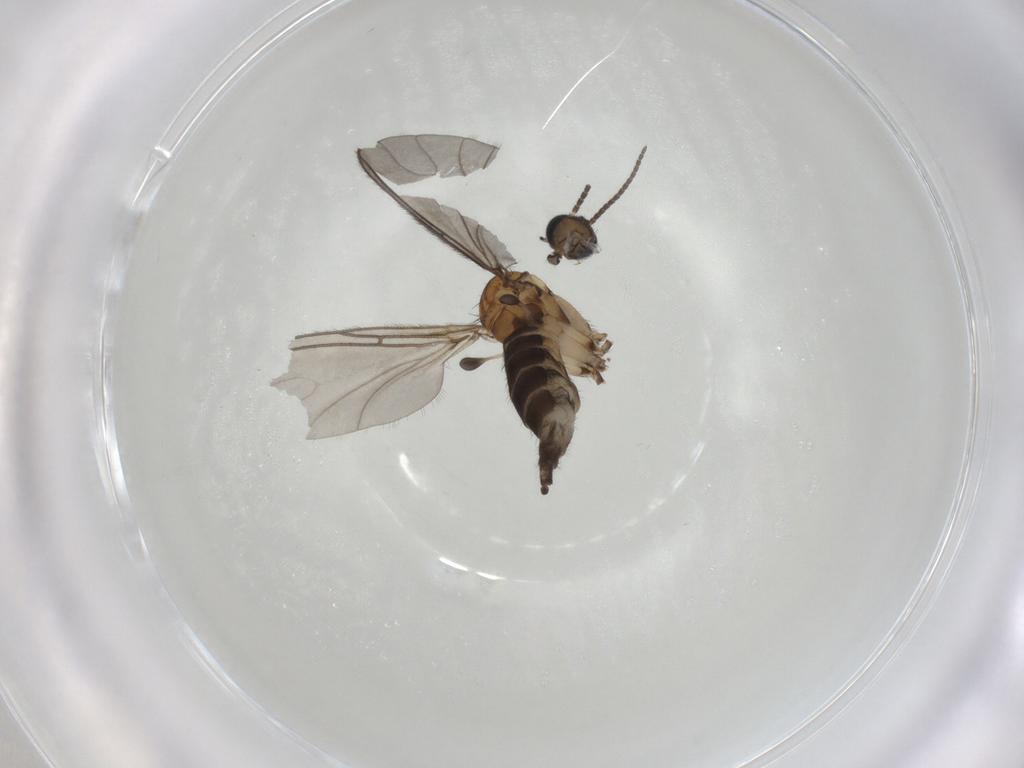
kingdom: Animalia
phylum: Arthropoda
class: Insecta
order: Diptera
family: Sciaridae
